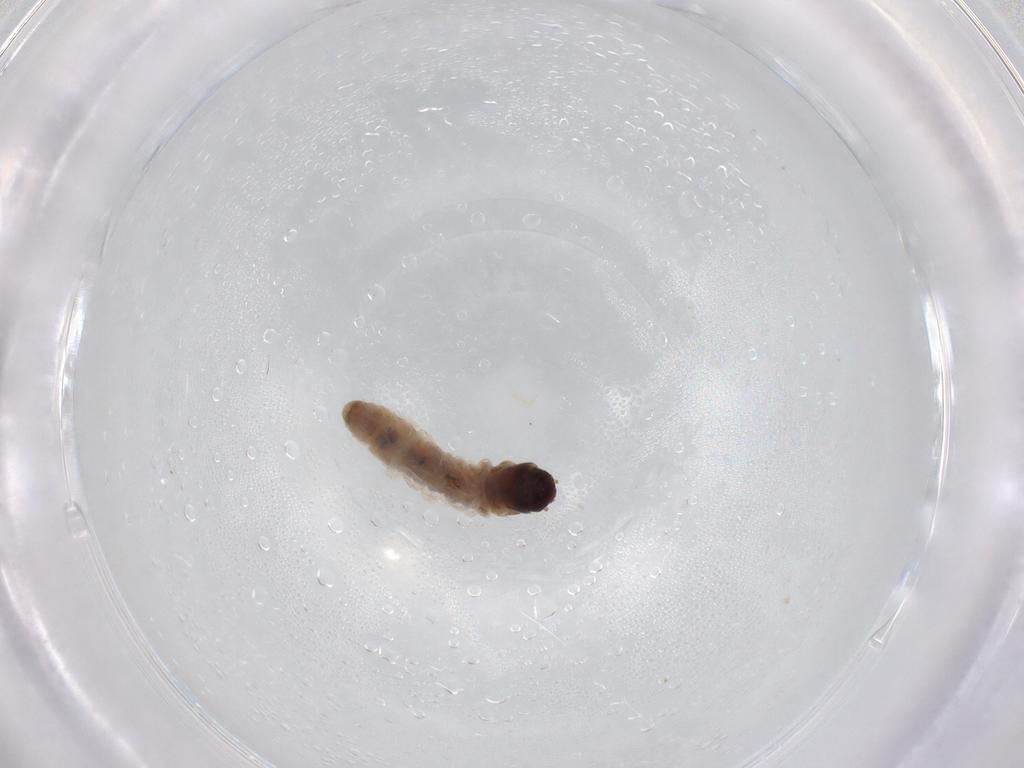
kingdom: Animalia
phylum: Arthropoda
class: Insecta
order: Lepidoptera
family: Psychidae
